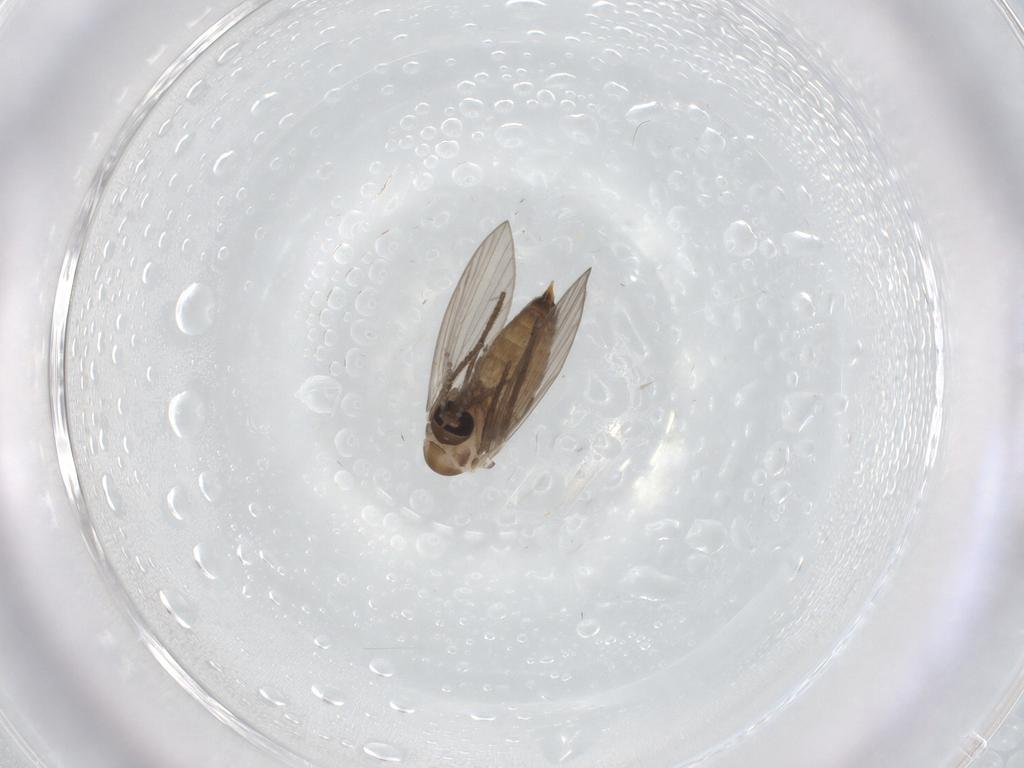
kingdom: Animalia
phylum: Arthropoda
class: Insecta
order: Diptera
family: Psychodidae
